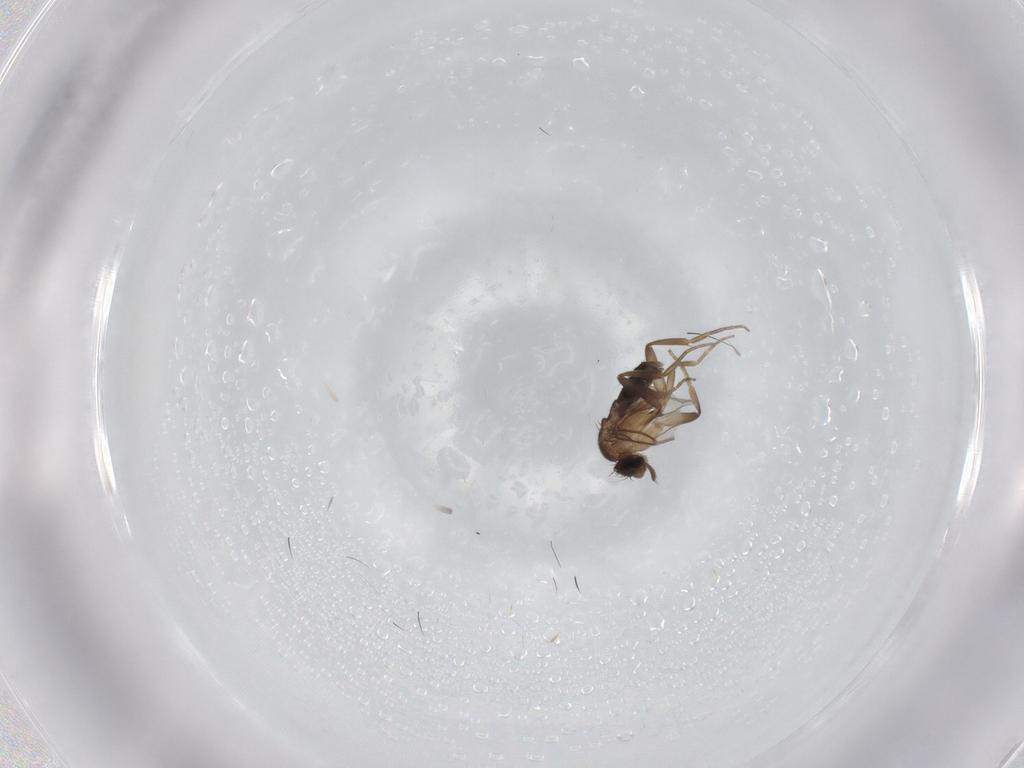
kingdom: Animalia
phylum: Arthropoda
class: Insecta
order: Diptera
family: Phoridae
